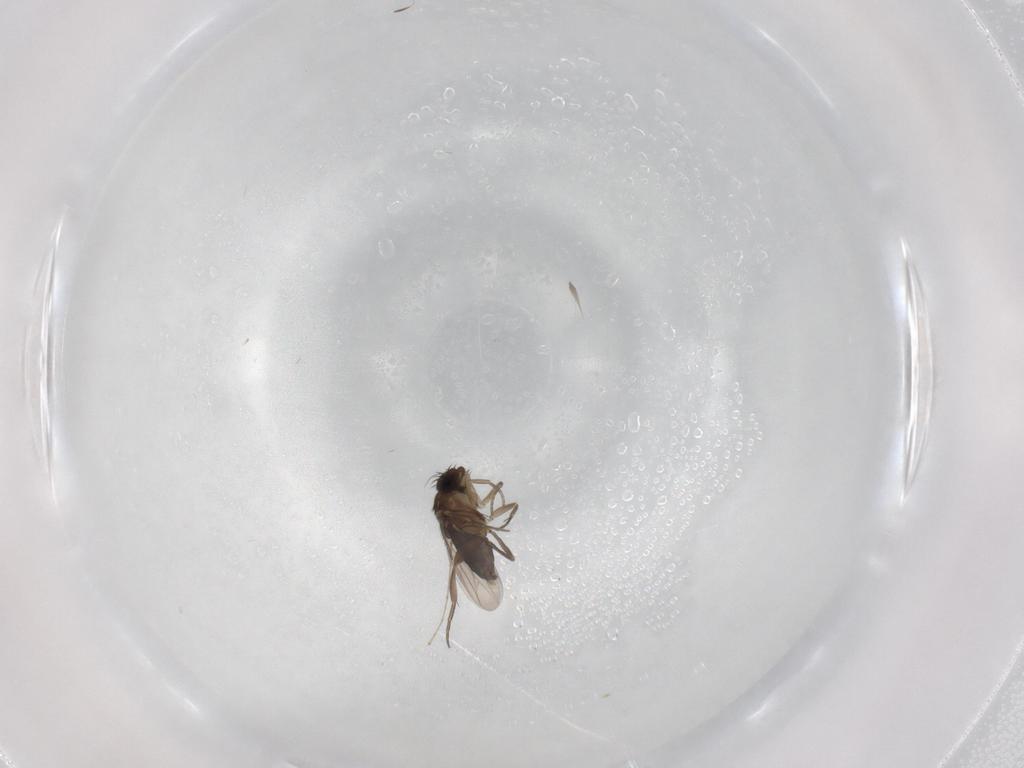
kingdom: Animalia
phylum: Arthropoda
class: Insecta
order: Diptera
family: Phoridae
